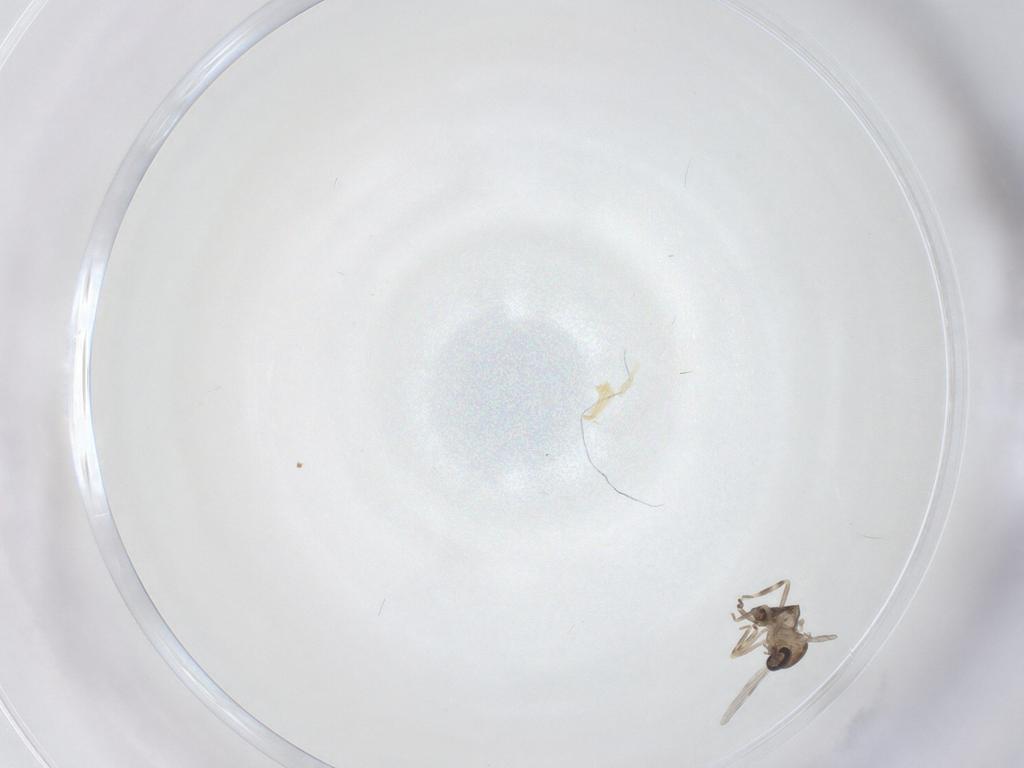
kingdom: Animalia
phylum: Arthropoda
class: Insecta
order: Diptera
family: Ceratopogonidae
